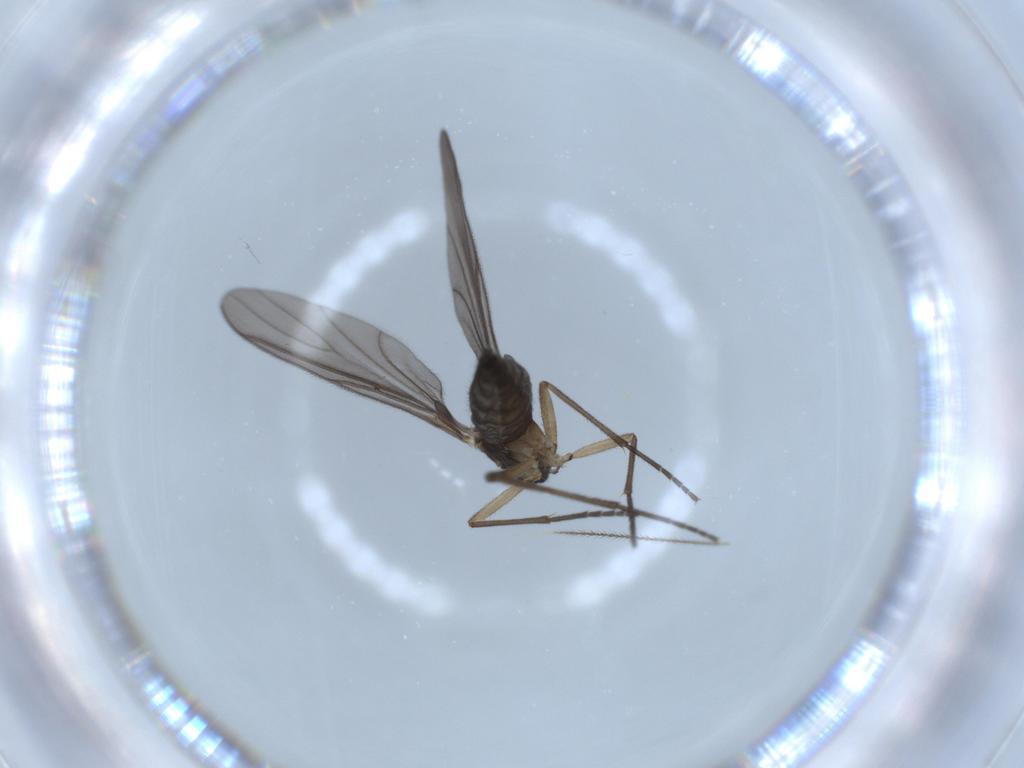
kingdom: Animalia
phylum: Arthropoda
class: Insecta
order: Diptera
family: Sciaridae
